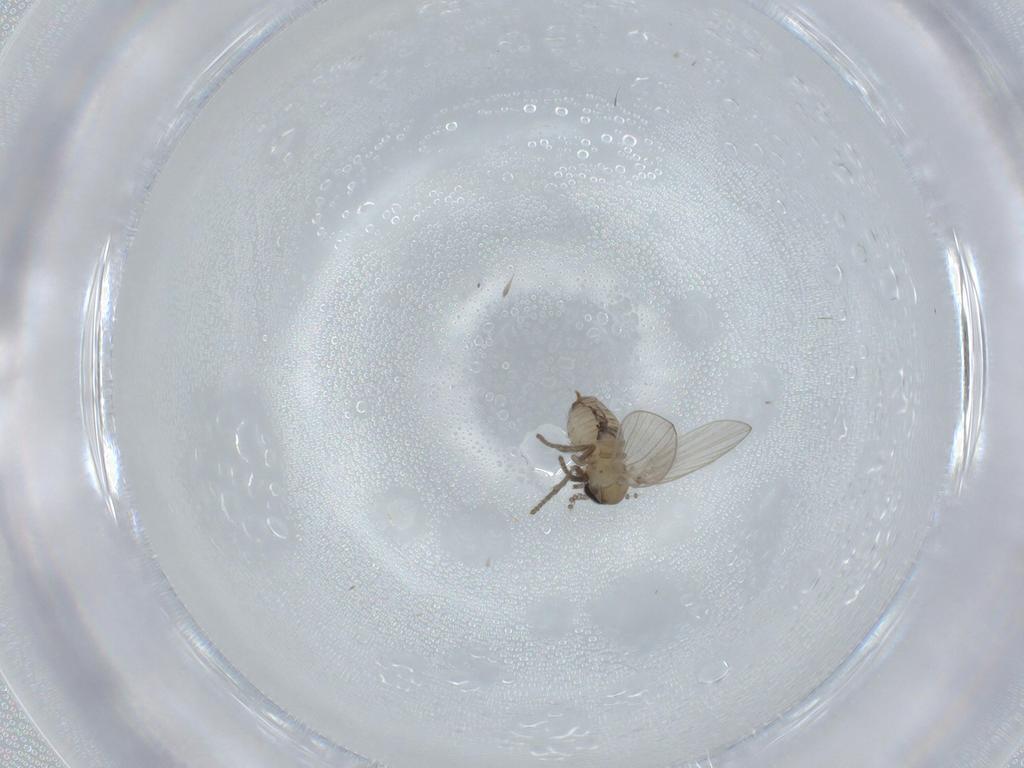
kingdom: Animalia
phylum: Arthropoda
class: Insecta
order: Diptera
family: Psychodidae
